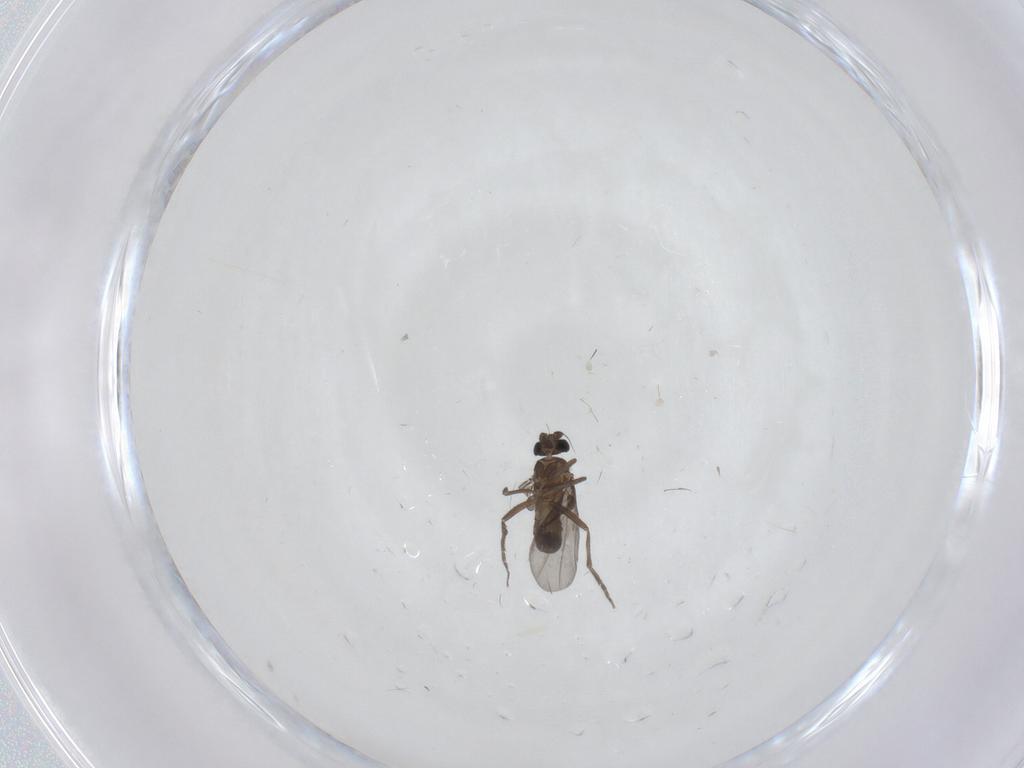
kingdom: Animalia
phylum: Arthropoda
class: Insecta
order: Diptera
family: Phoridae
